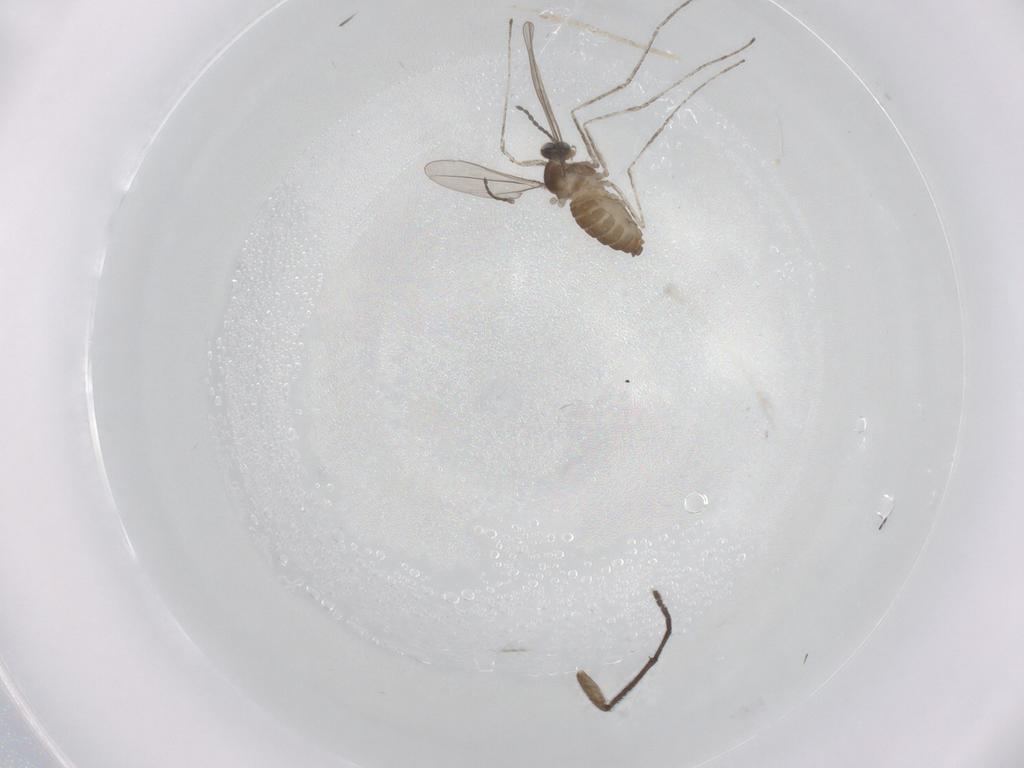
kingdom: Animalia
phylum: Arthropoda
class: Insecta
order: Diptera
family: Cecidomyiidae
